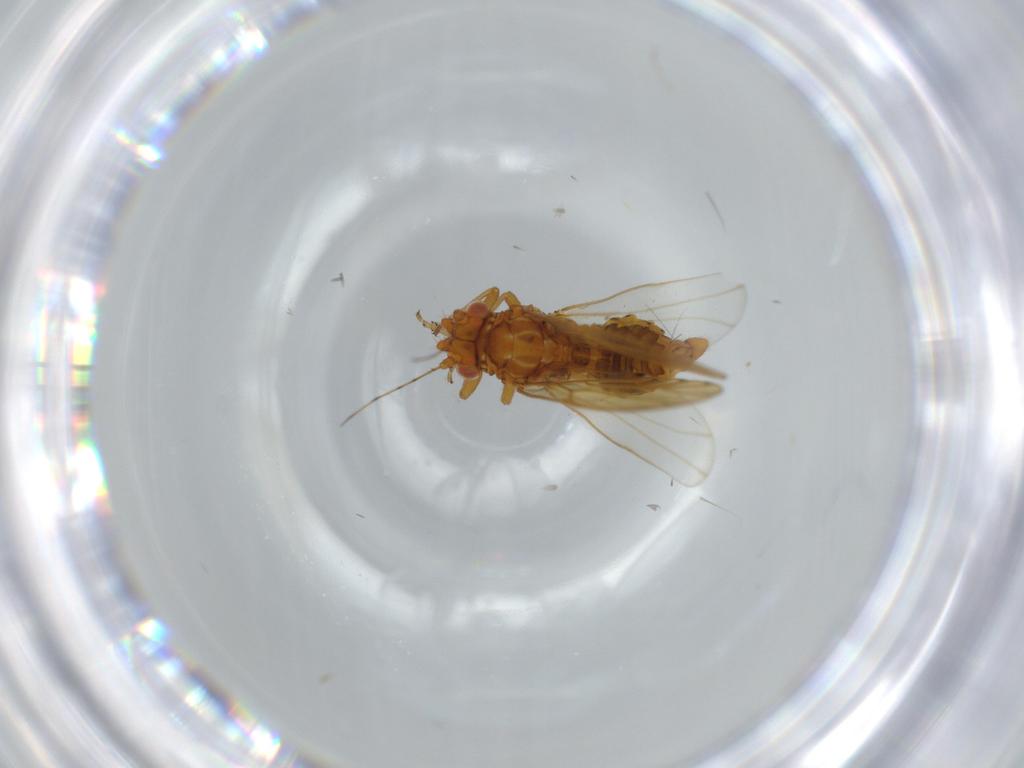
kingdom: Animalia
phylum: Arthropoda
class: Insecta
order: Hemiptera
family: Psylloidea_incertae_sedis
